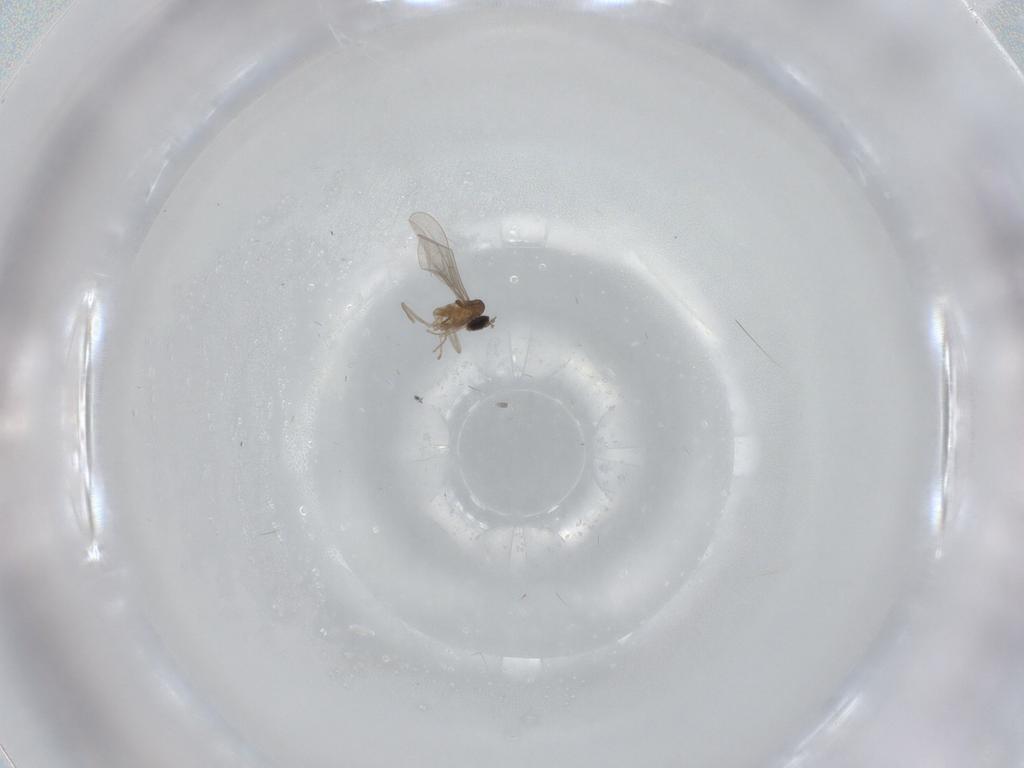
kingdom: Animalia
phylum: Arthropoda
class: Insecta
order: Diptera
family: Cecidomyiidae
